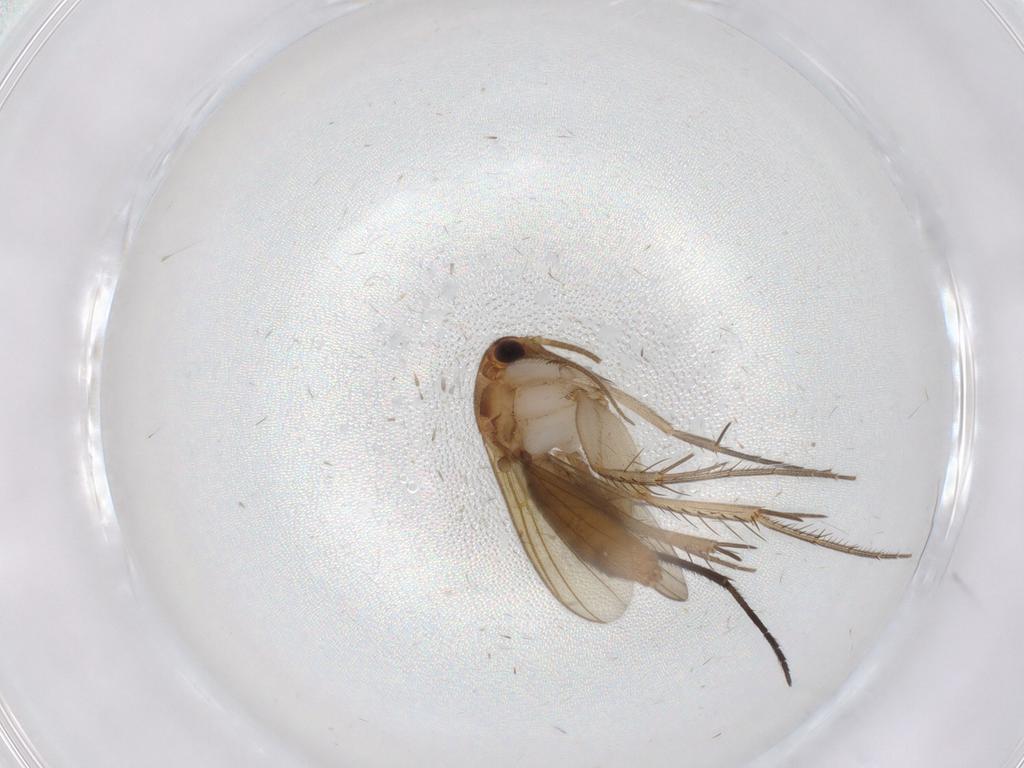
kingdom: Animalia
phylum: Arthropoda
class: Insecta
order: Diptera
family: Mycetophilidae
